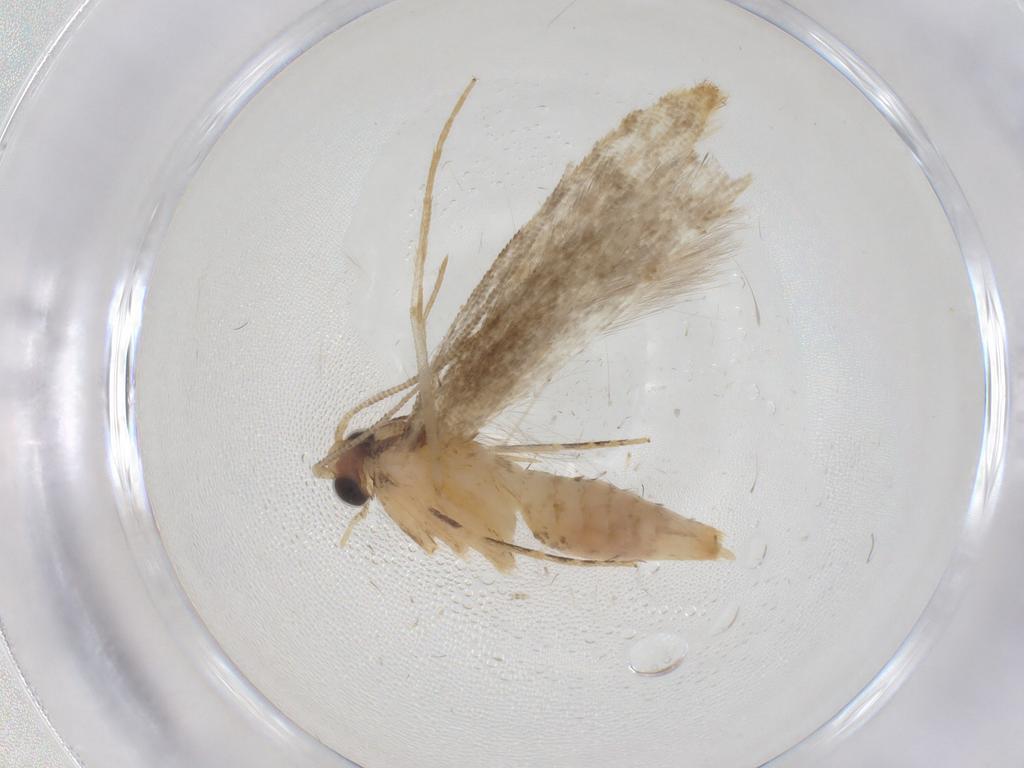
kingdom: Animalia
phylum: Arthropoda
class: Insecta
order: Lepidoptera
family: Tineidae
